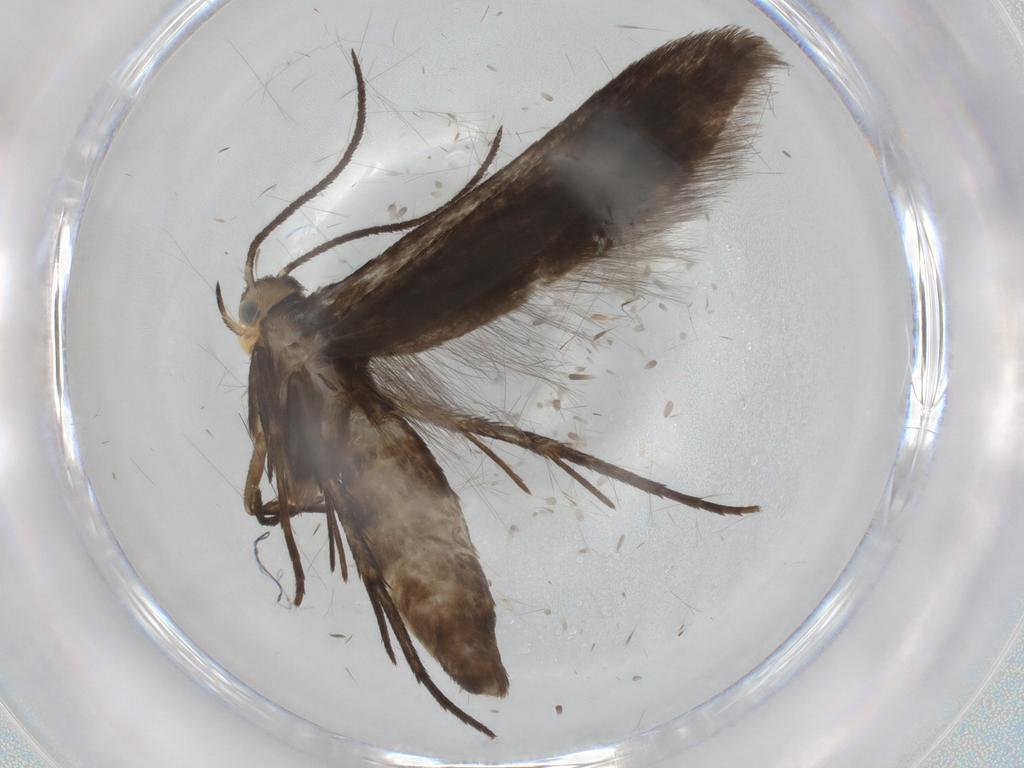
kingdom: Animalia
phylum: Arthropoda
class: Insecta
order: Lepidoptera
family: Schreckensteiniidae
